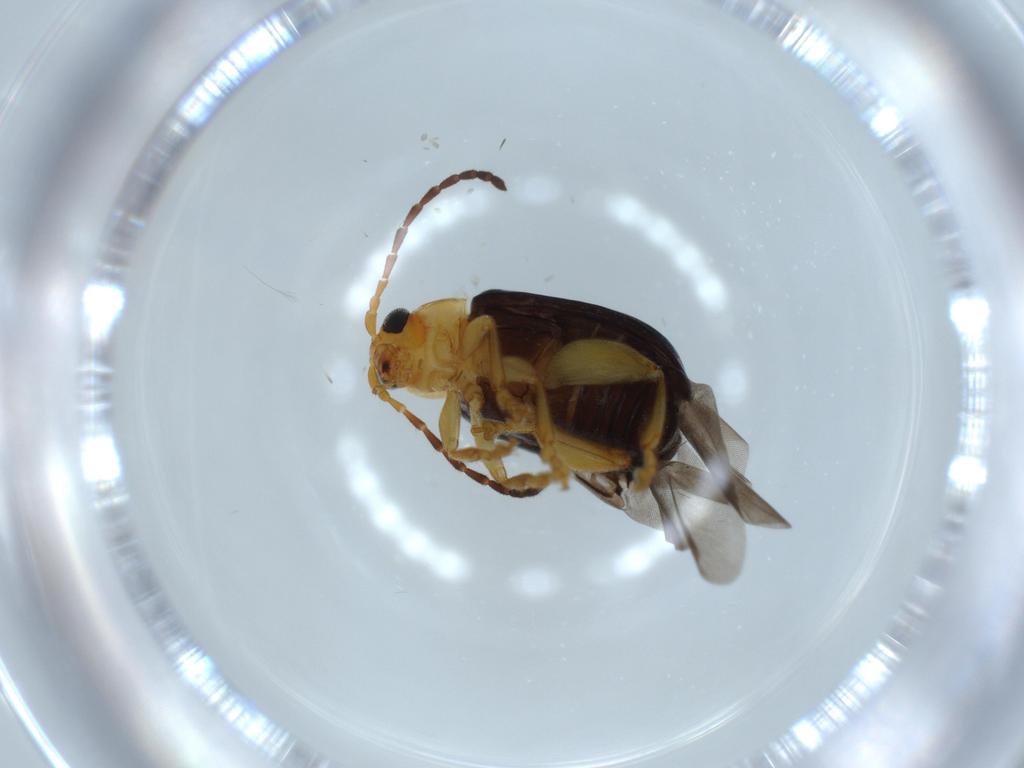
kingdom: Animalia
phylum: Arthropoda
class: Insecta
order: Coleoptera
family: Chrysomelidae
